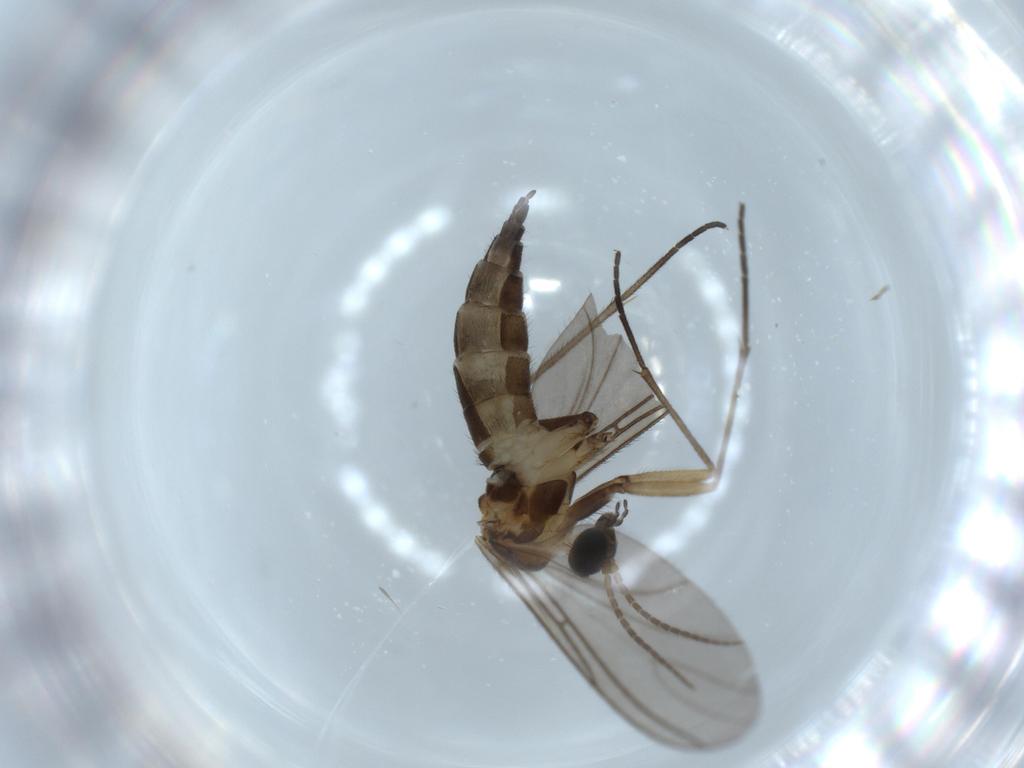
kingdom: Animalia
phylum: Arthropoda
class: Insecta
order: Diptera
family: Sciaridae
